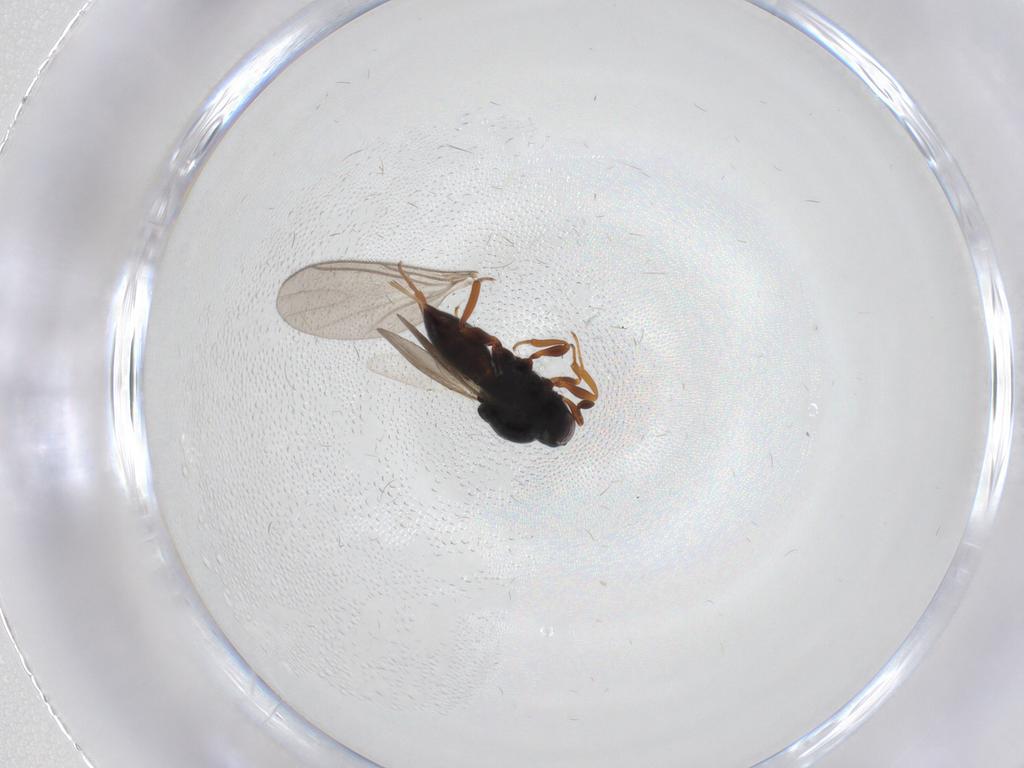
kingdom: Animalia
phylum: Arthropoda
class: Insecta
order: Hymenoptera
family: Platygastridae
